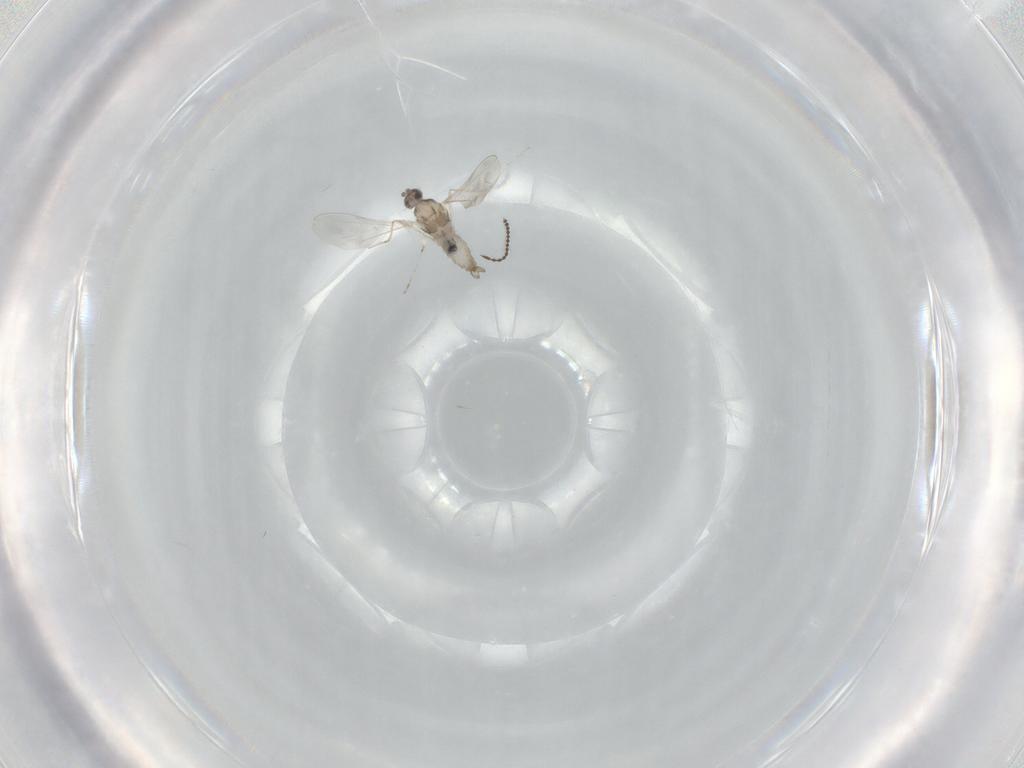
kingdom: Animalia
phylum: Arthropoda
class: Insecta
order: Diptera
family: Cecidomyiidae
